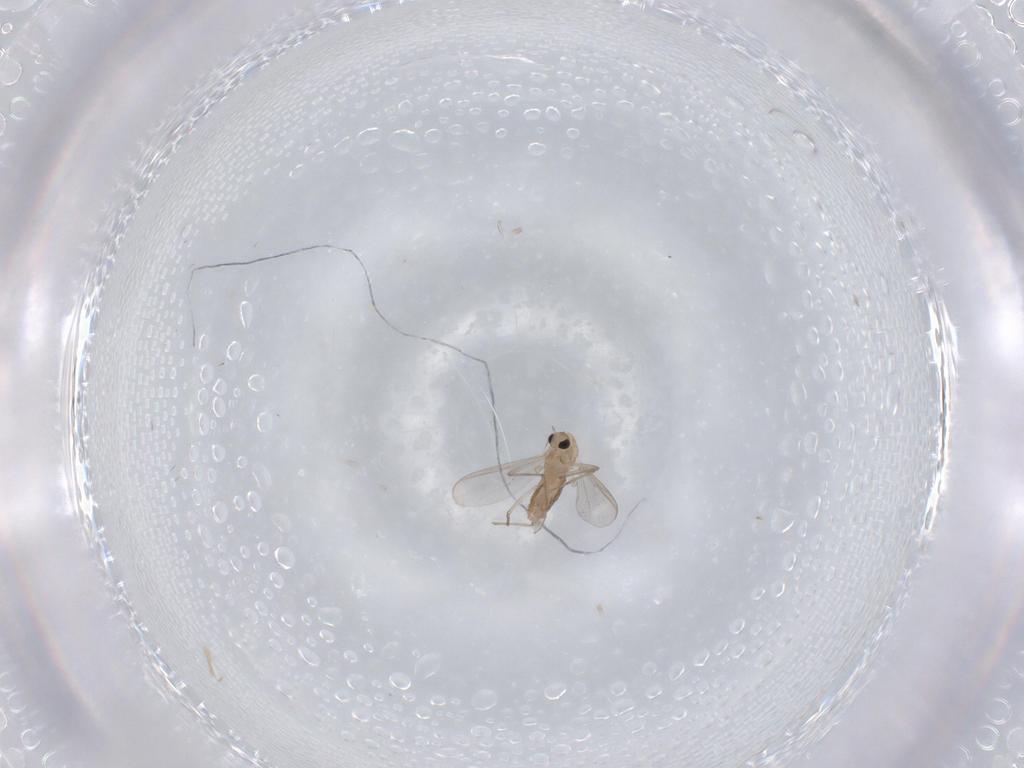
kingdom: Animalia
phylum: Arthropoda
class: Insecta
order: Diptera
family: Chironomidae
